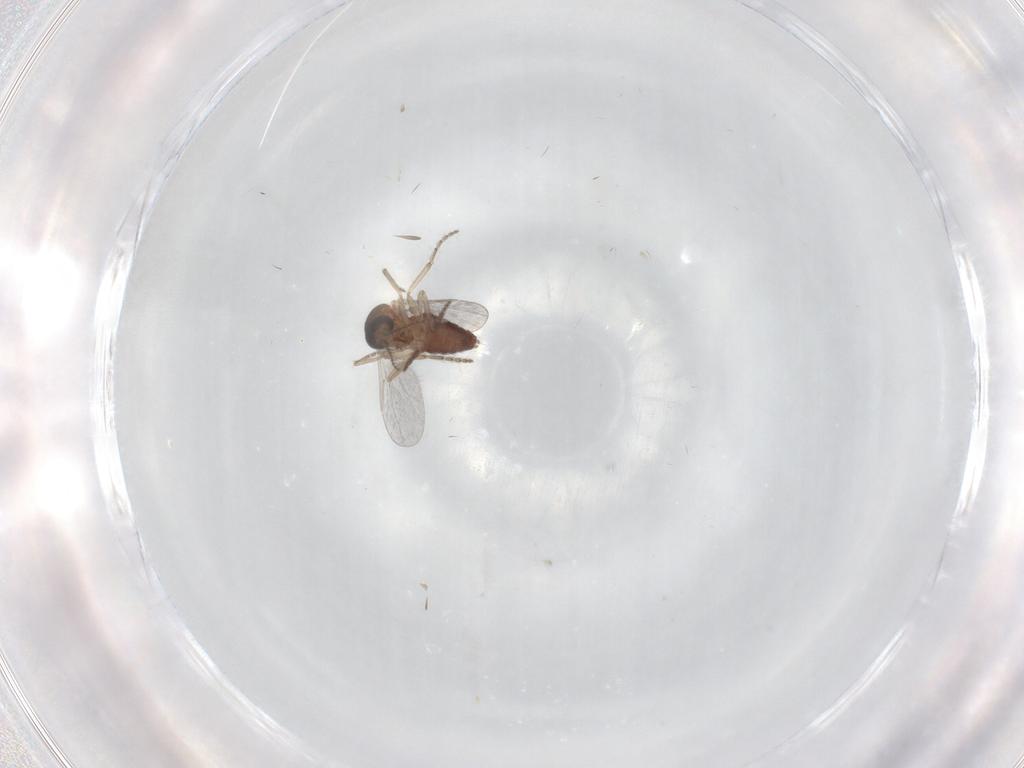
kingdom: Animalia
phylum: Arthropoda
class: Insecta
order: Diptera
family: Ceratopogonidae
